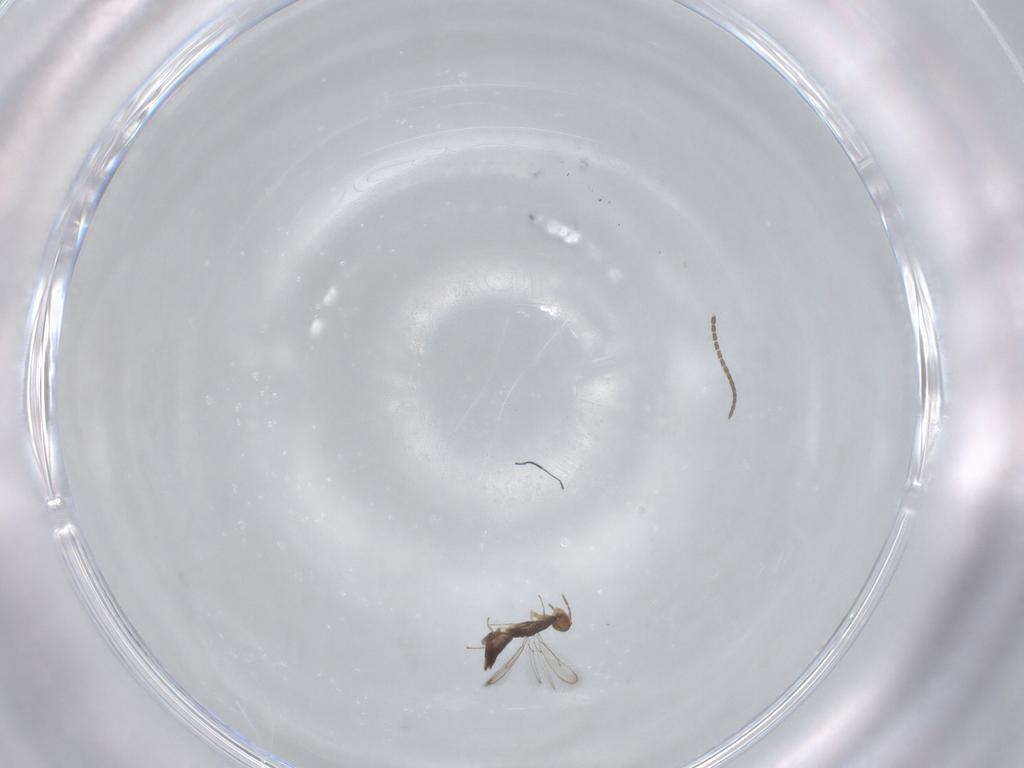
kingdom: Animalia
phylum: Arthropoda
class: Insecta
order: Hymenoptera
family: Eulophidae
